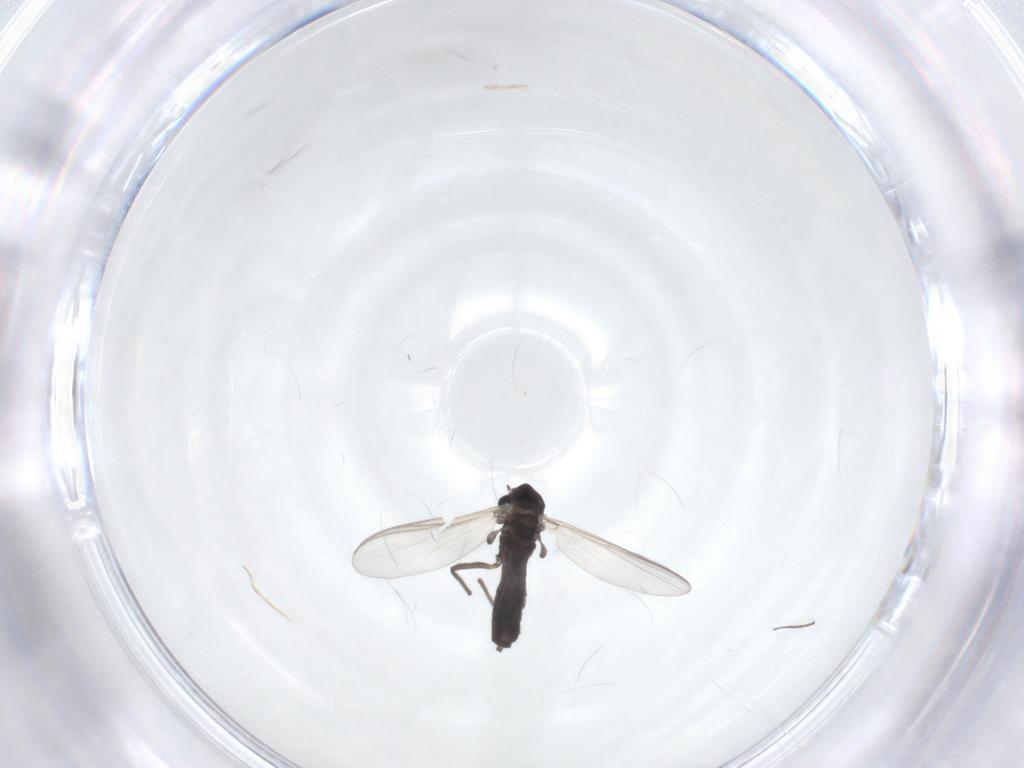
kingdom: Animalia
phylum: Arthropoda
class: Insecta
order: Diptera
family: Chironomidae
